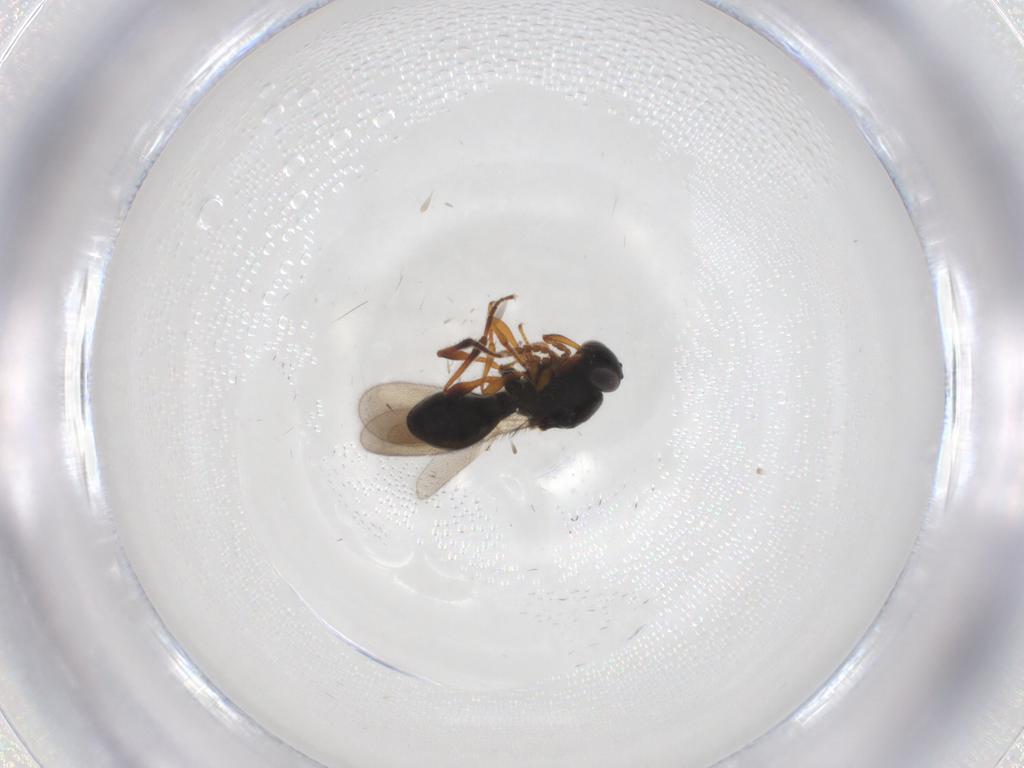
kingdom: Animalia
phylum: Arthropoda
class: Insecta
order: Hymenoptera
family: Platygastridae
